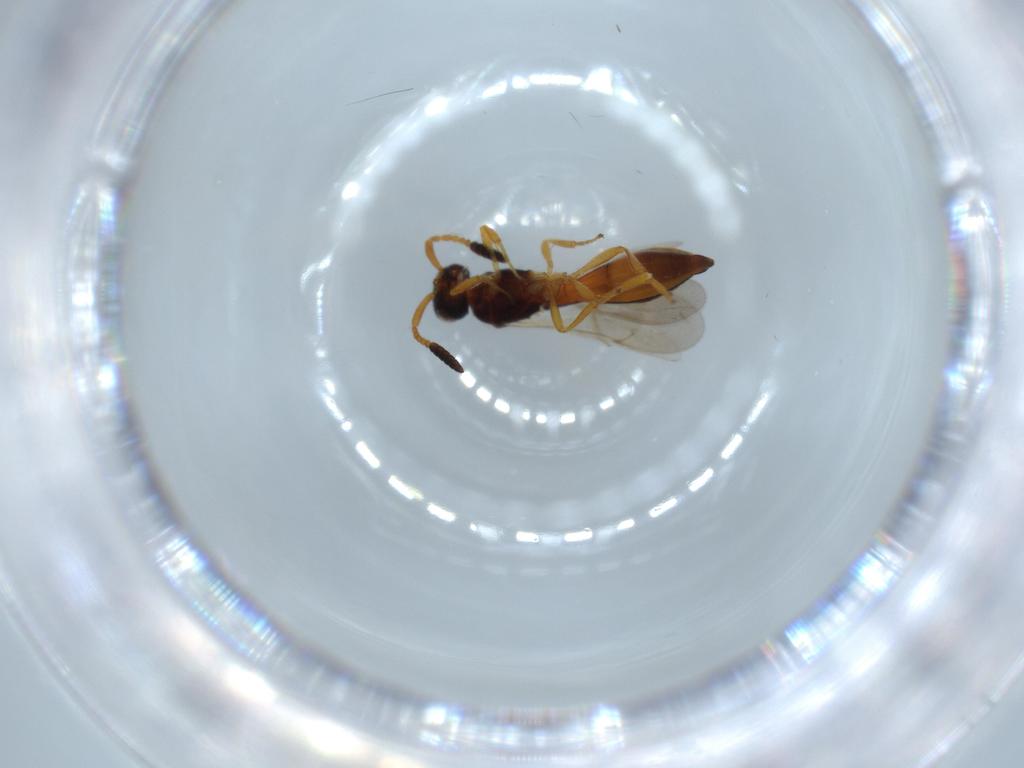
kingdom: Animalia
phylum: Arthropoda
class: Insecta
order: Hymenoptera
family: Scelionidae
